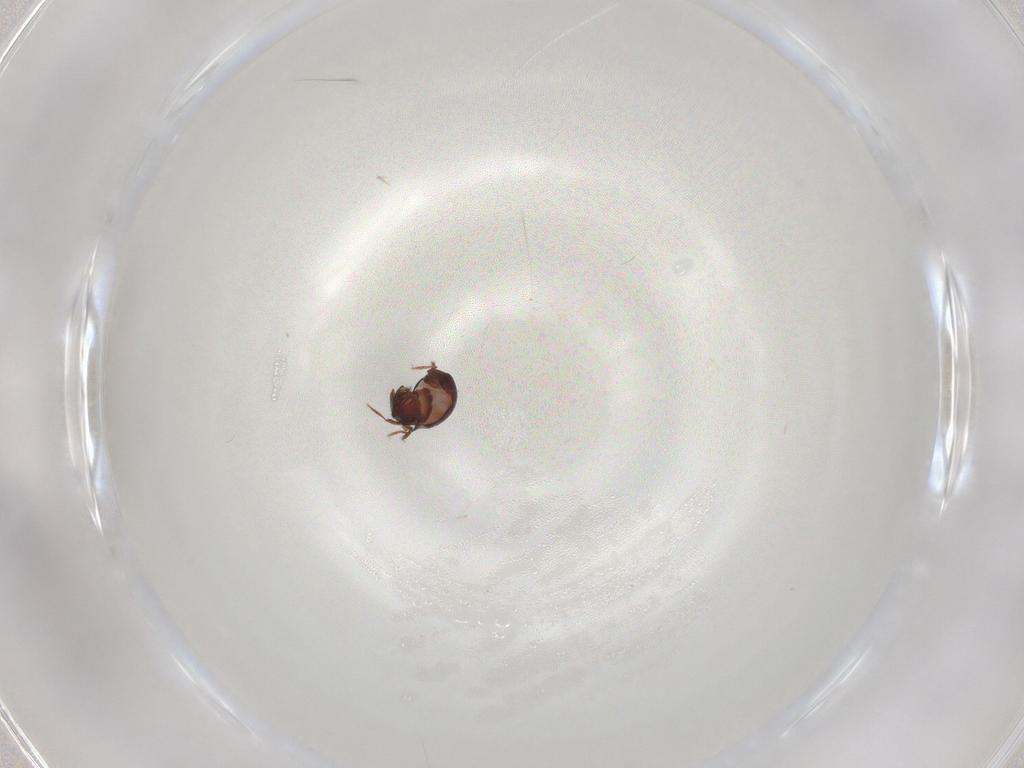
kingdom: Animalia
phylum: Arthropoda
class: Arachnida
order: Sarcoptiformes
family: Humerobatidae
